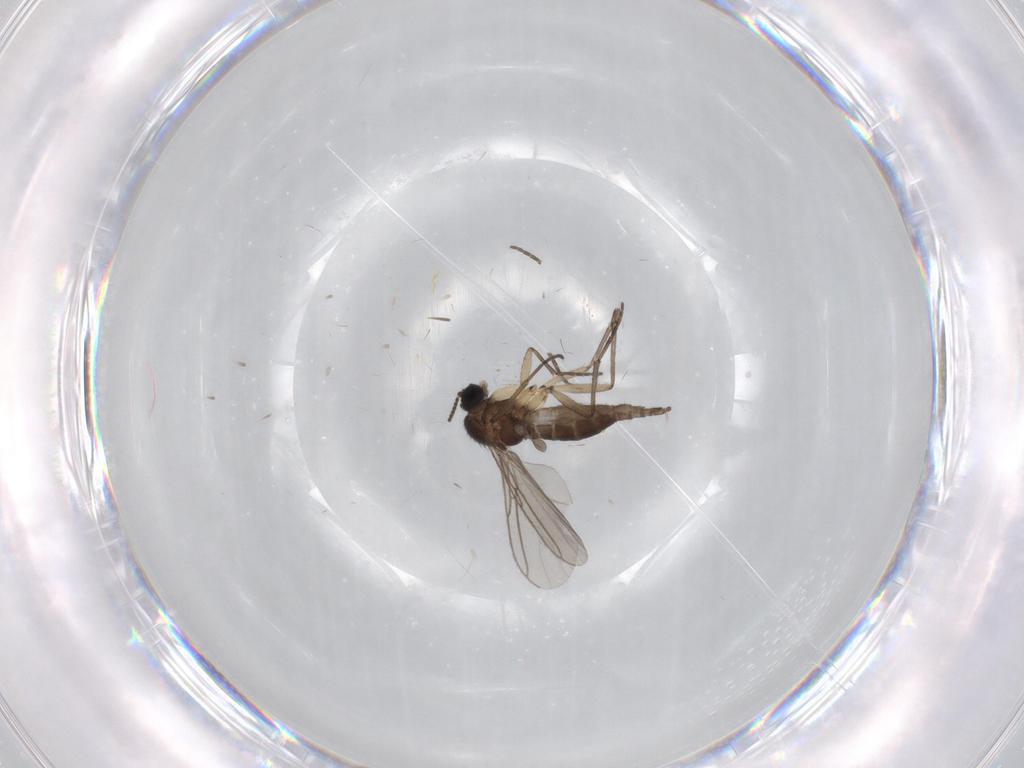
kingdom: Animalia
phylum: Arthropoda
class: Insecta
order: Diptera
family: Sciaridae
